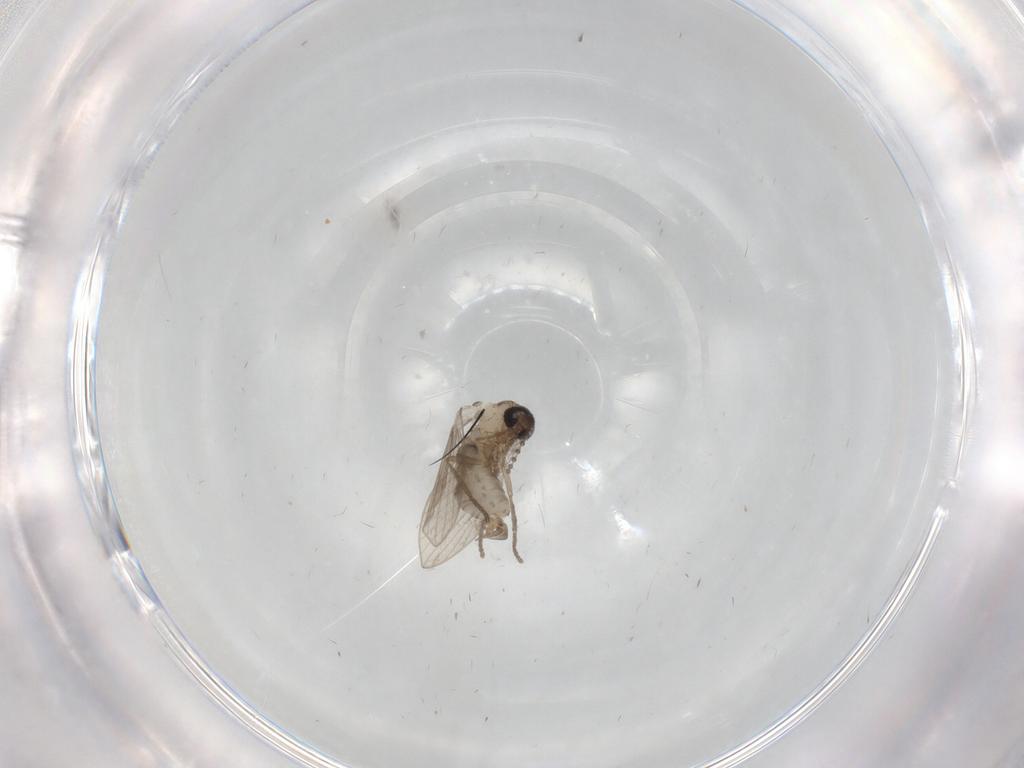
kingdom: Animalia
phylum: Arthropoda
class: Insecta
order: Diptera
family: Psychodidae
